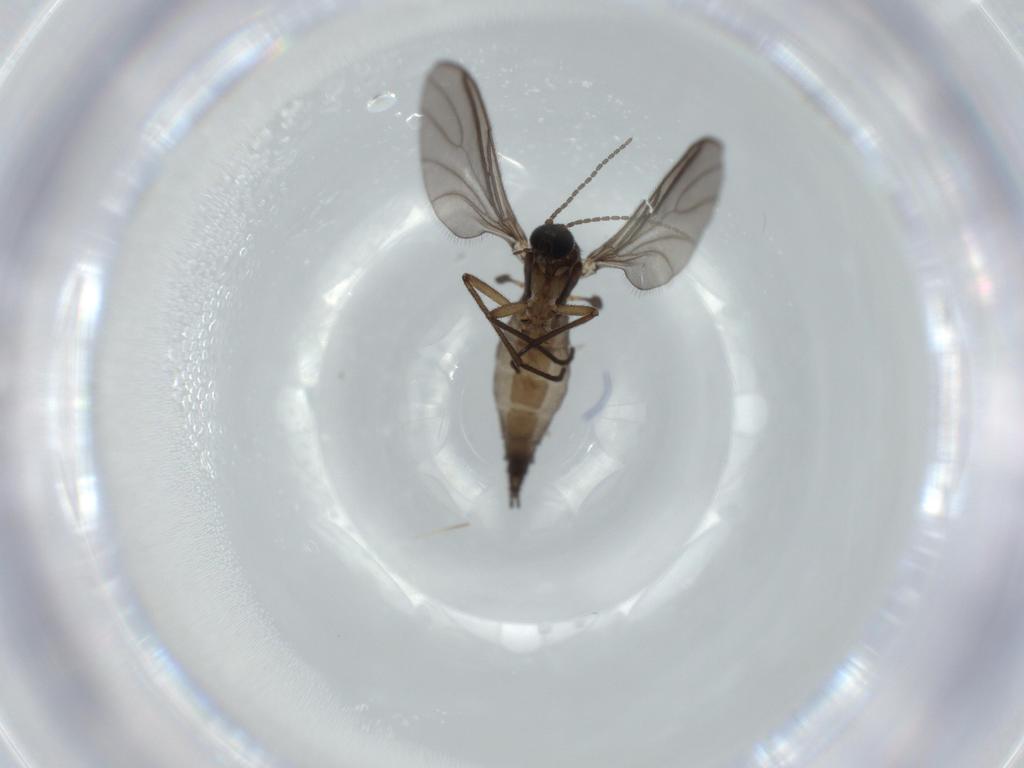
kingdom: Animalia
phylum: Arthropoda
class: Insecta
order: Diptera
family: Sciaridae
